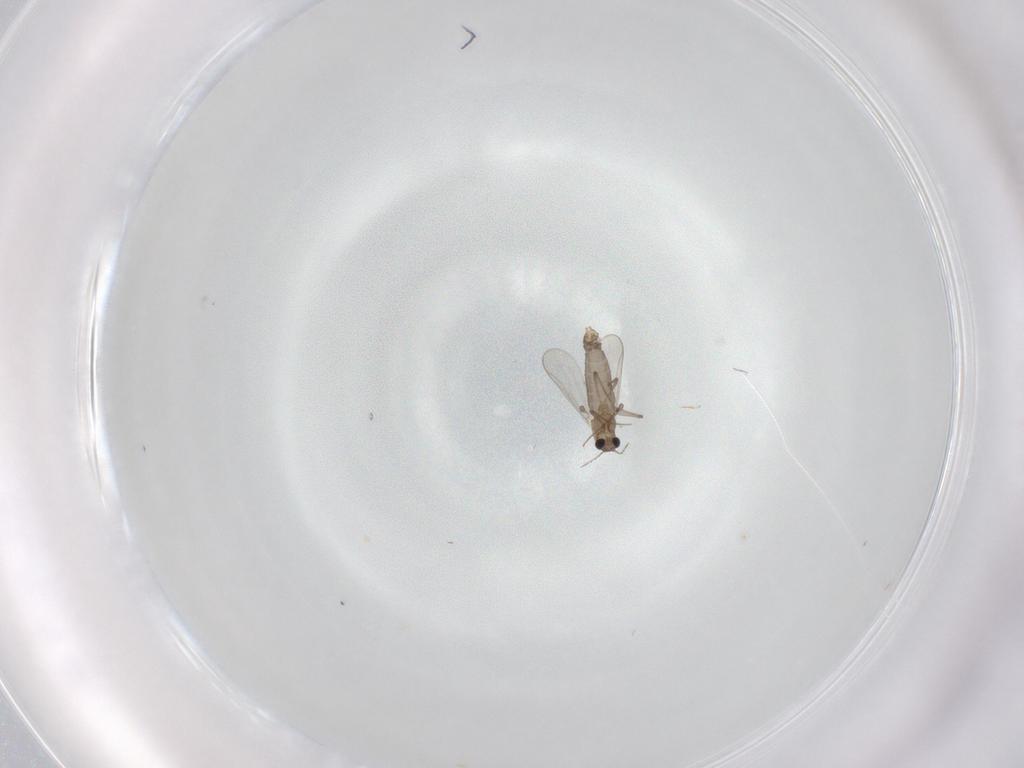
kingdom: Animalia
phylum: Arthropoda
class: Insecta
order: Diptera
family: Chironomidae
